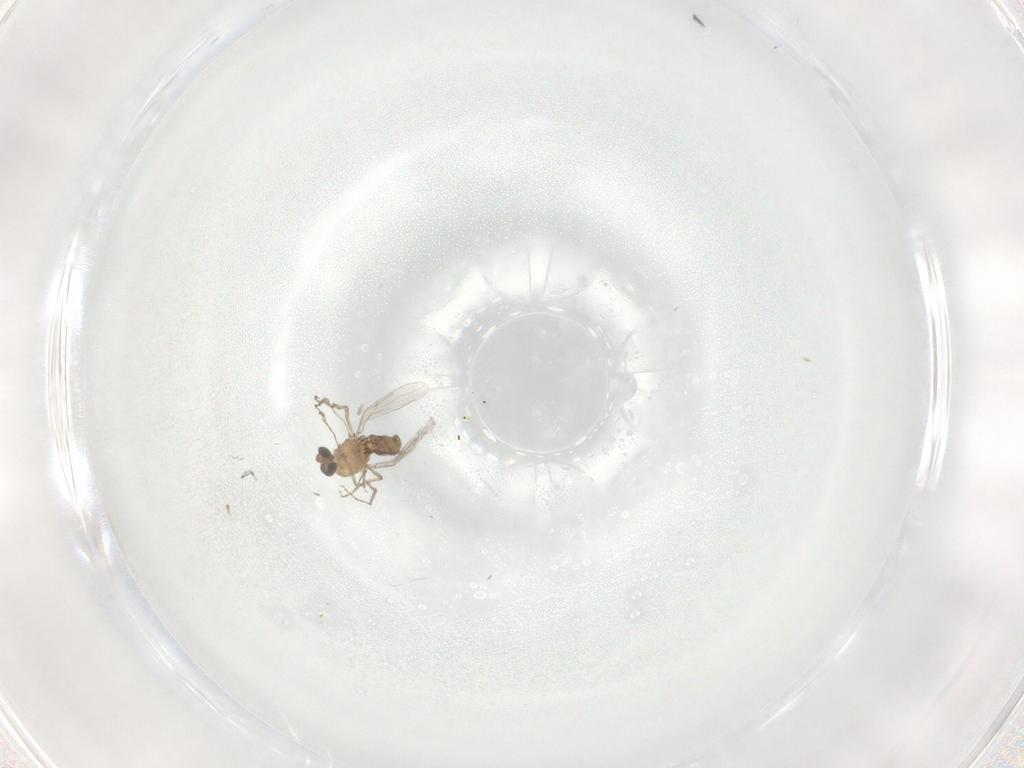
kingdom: Animalia
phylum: Arthropoda
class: Insecta
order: Diptera
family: Ceratopogonidae
